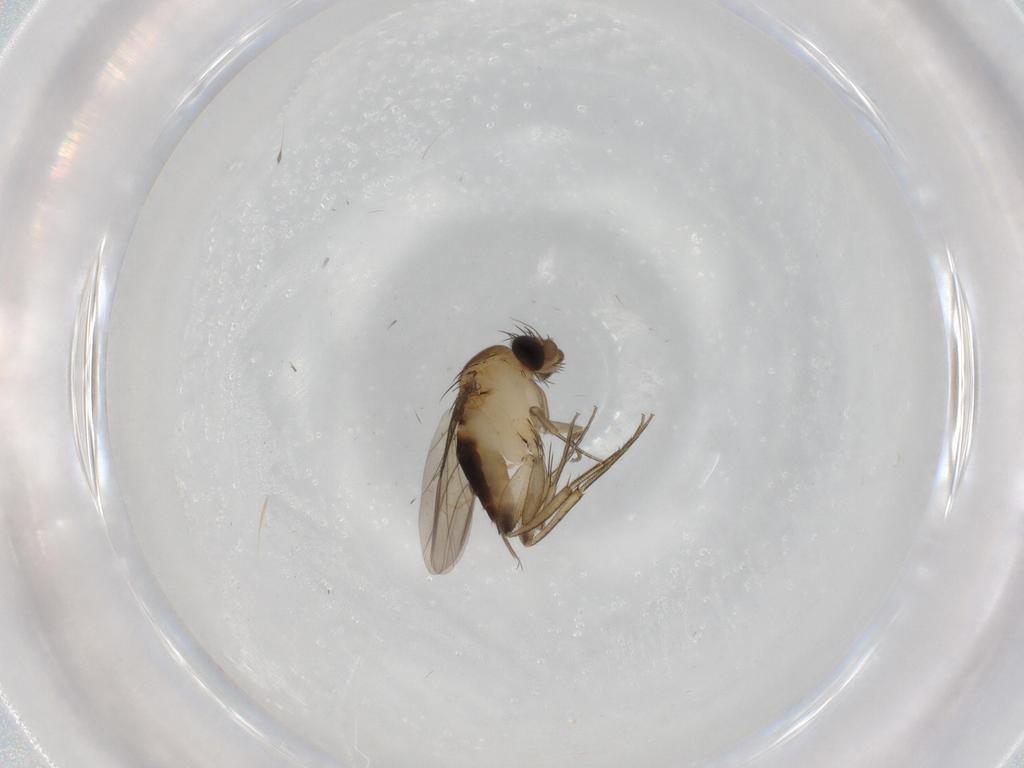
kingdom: Animalia
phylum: Arthropoda
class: Insecta
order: Diptera
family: Phoridae
